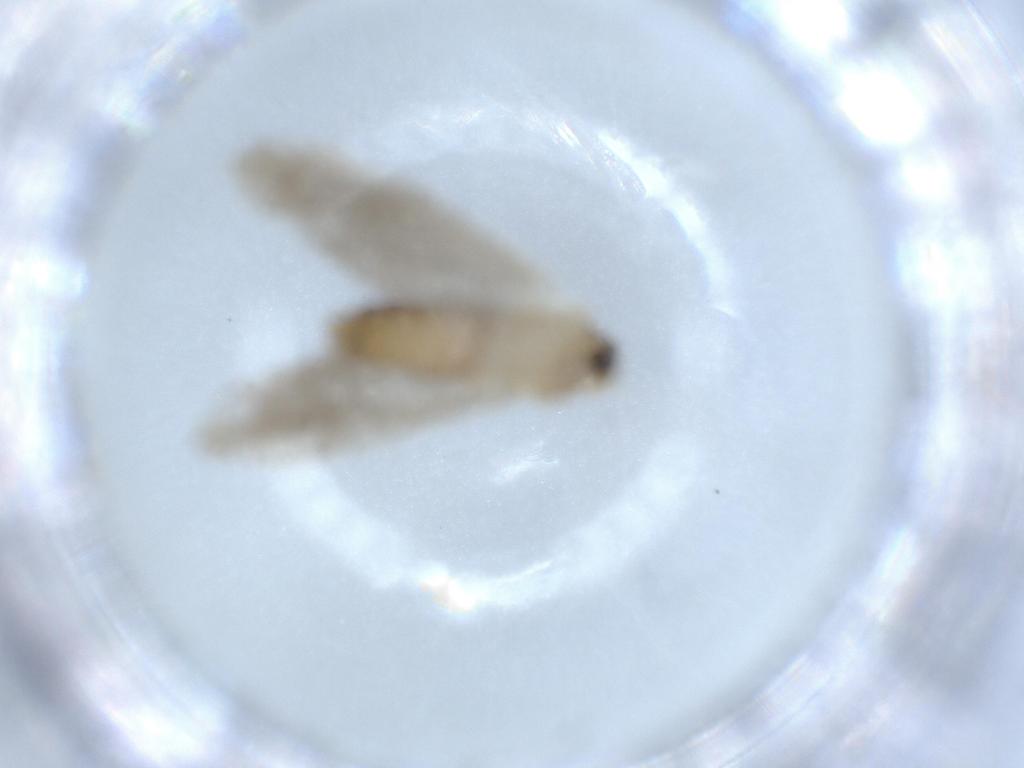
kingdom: Animalia
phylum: Arthropoda
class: Insecta
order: Lepidoptera
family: Tineidae
